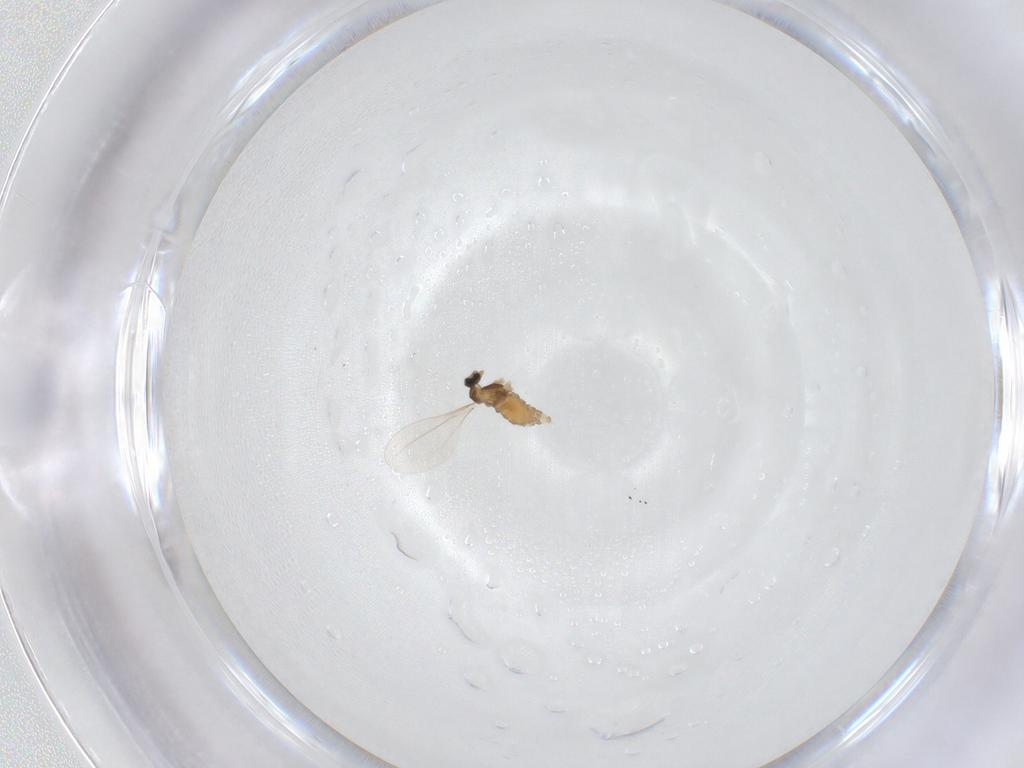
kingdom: Animalia
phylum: Arthropoda
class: Insecta
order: Diptera
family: Cecidomyiidae
